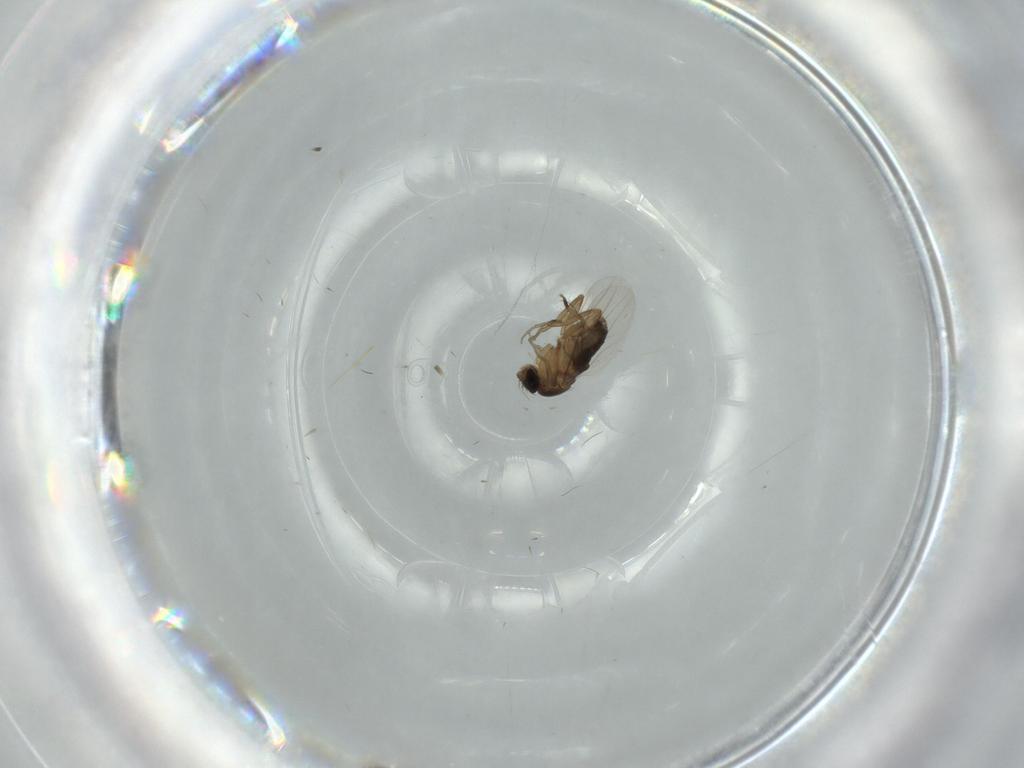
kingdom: Animalia
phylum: Arthropoda
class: Insecta
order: Diptera
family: Phoridae
